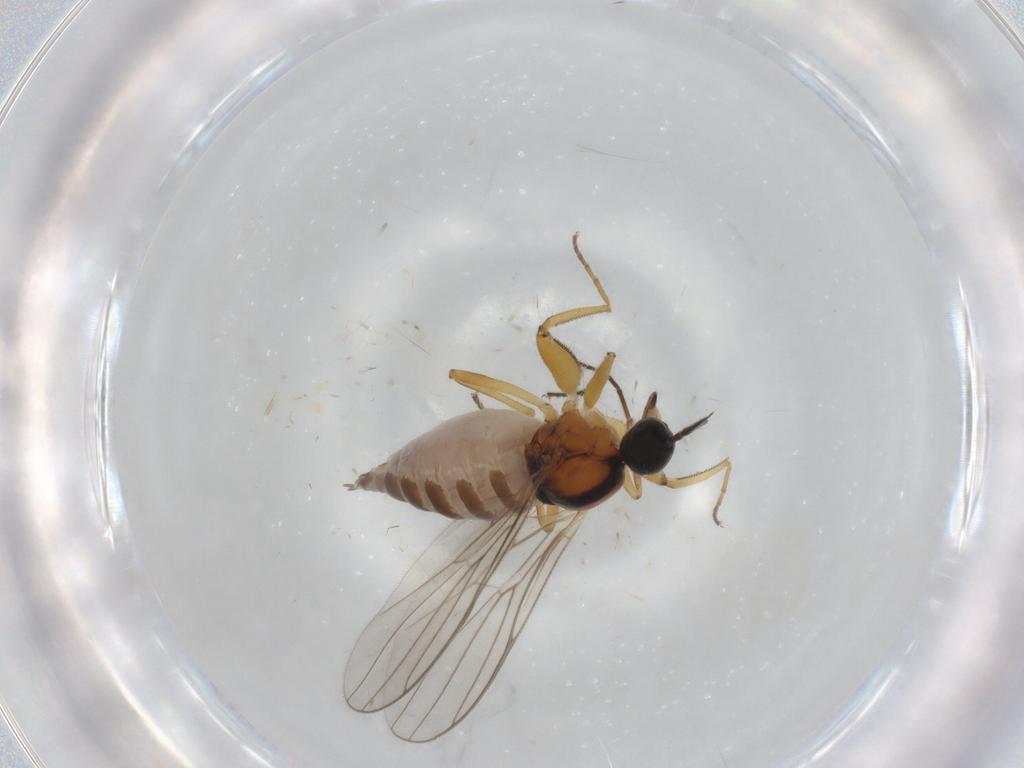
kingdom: Animalia
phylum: Arthropoda
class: Insecta
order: Diptera
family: Hybotidae
